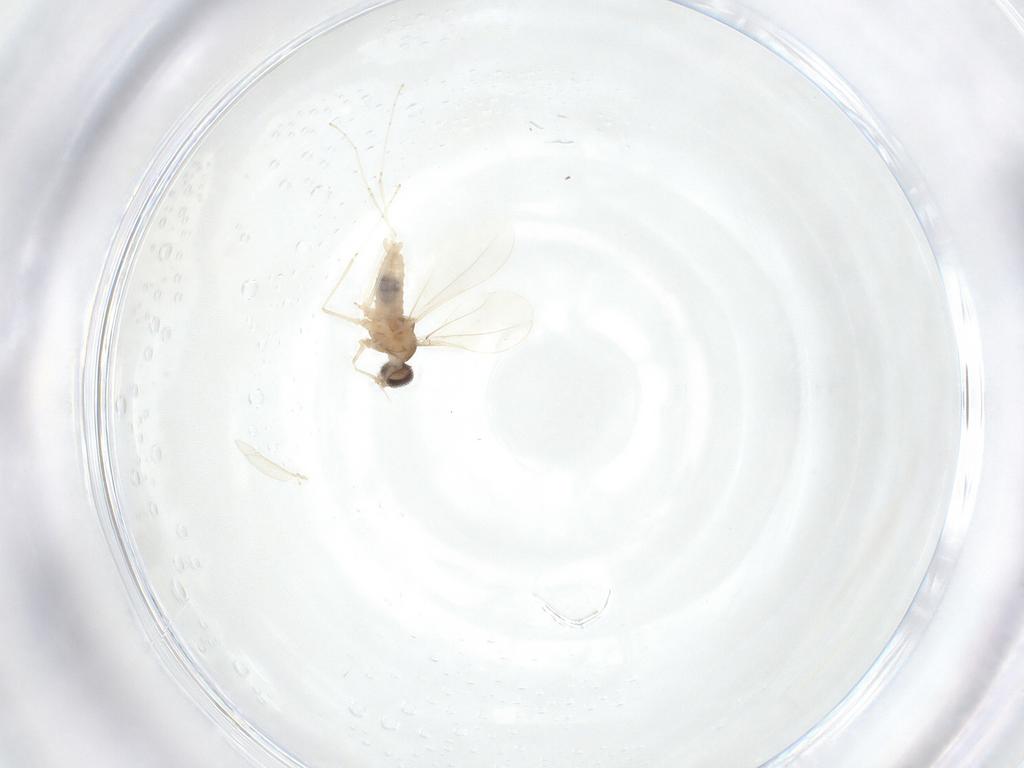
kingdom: Animalia
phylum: Arthropoda
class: Insecta
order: Diptera
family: Cecidomyiidae
